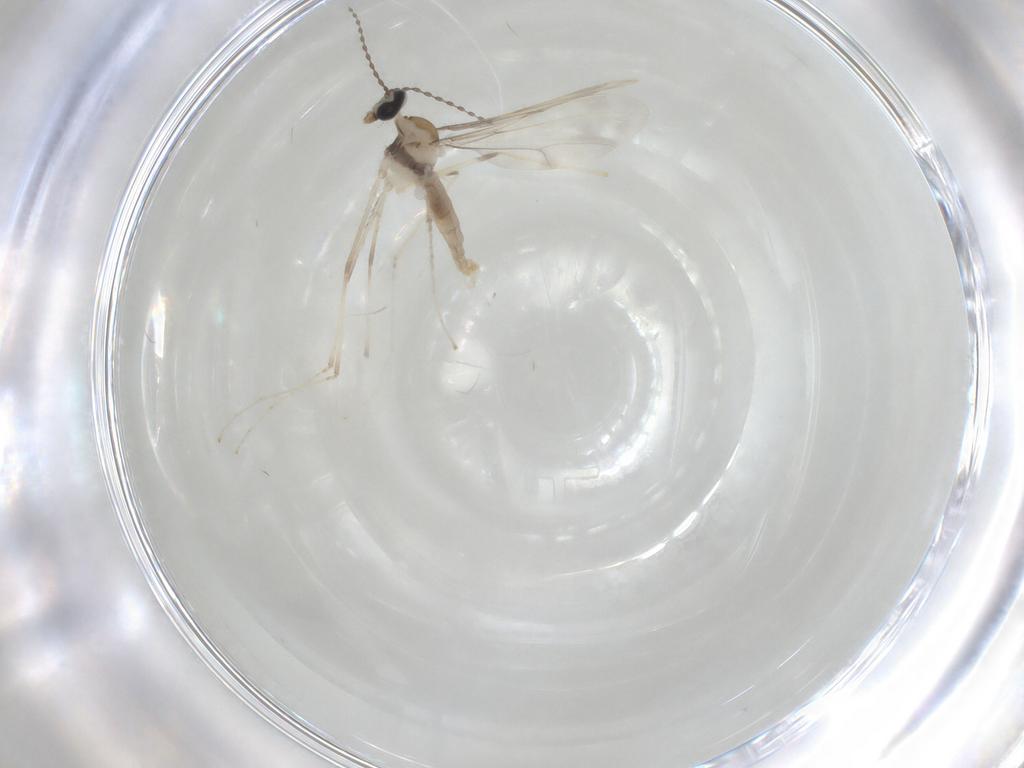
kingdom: Animalia
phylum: Arthropoda
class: Insecta
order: Diptera
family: Cecidomyiidae
